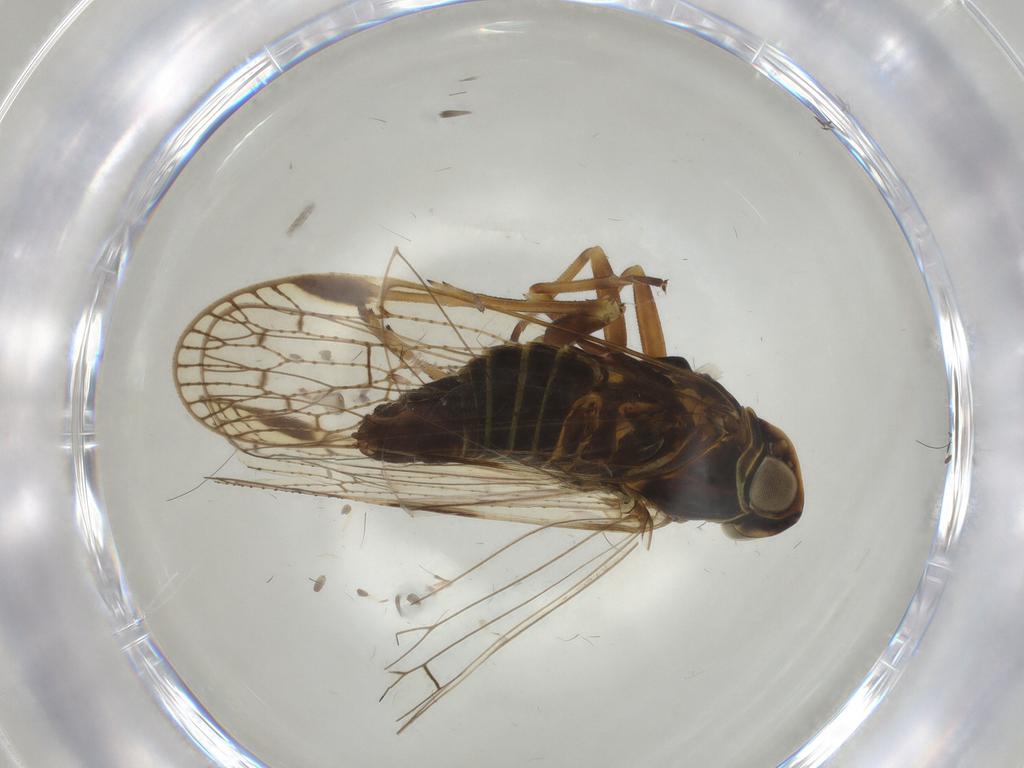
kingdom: Animalia
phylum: Arthropoda
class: Insecta
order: Hemiptera
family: Cixiidae
